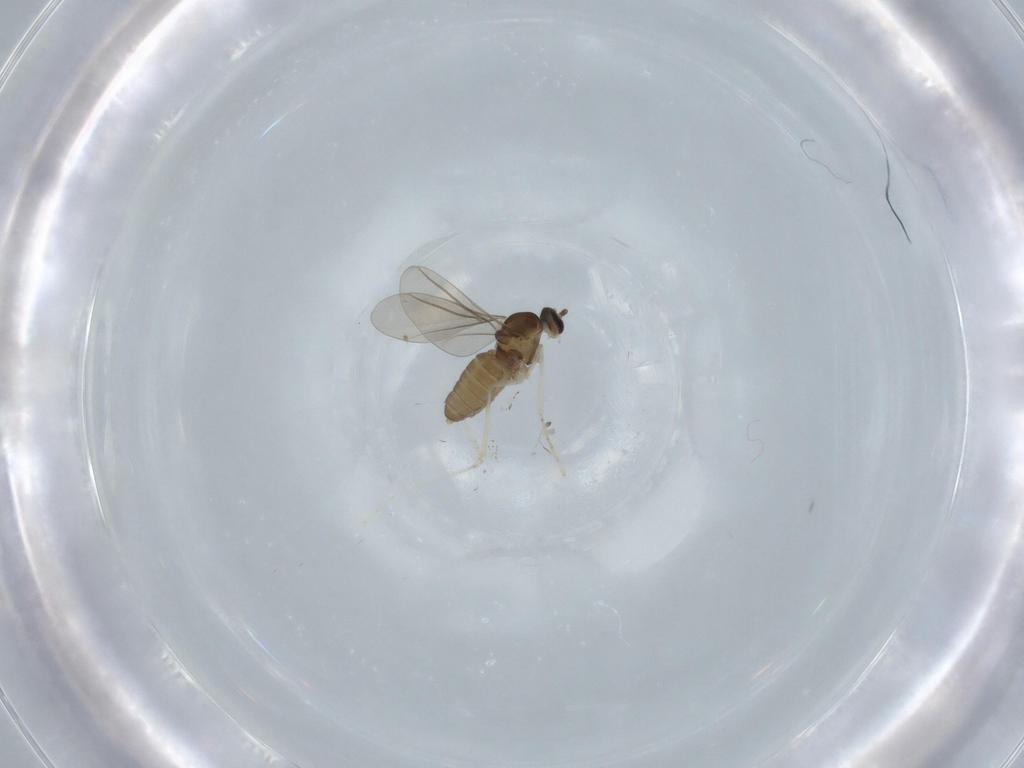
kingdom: Animalia
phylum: Arthropoda
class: Insecta
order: Diptera
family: Cecidomyiidae
